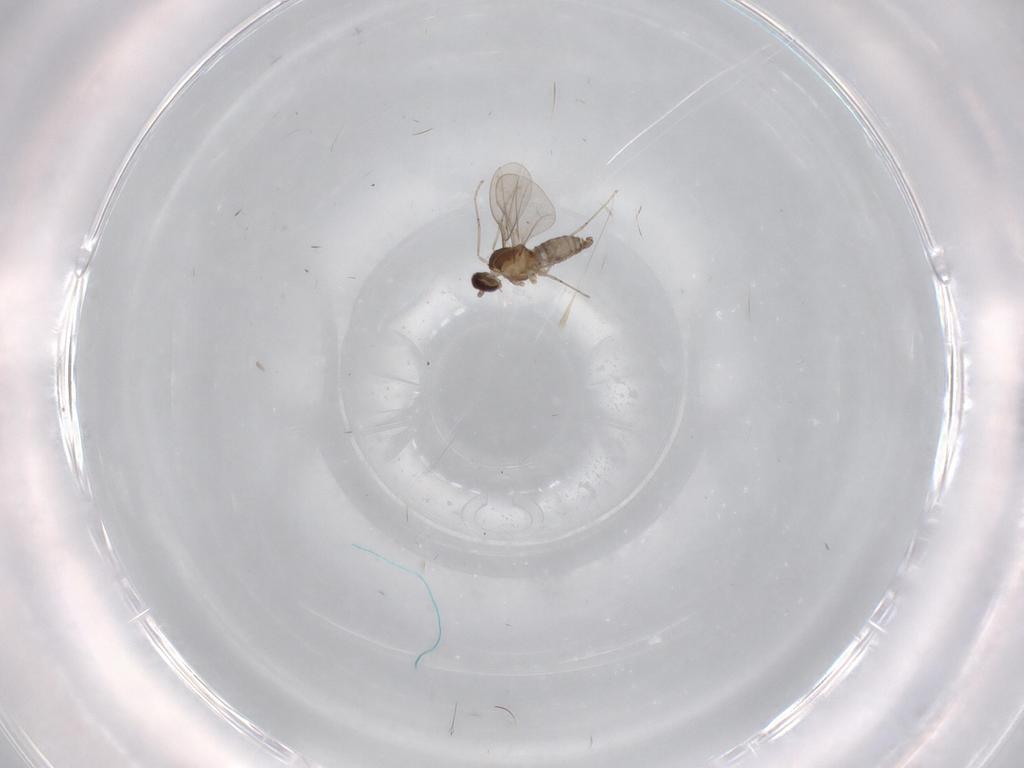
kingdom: Animalia
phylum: Arthropoda
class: Insecta
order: Diptera
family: Cecidomyiidae
